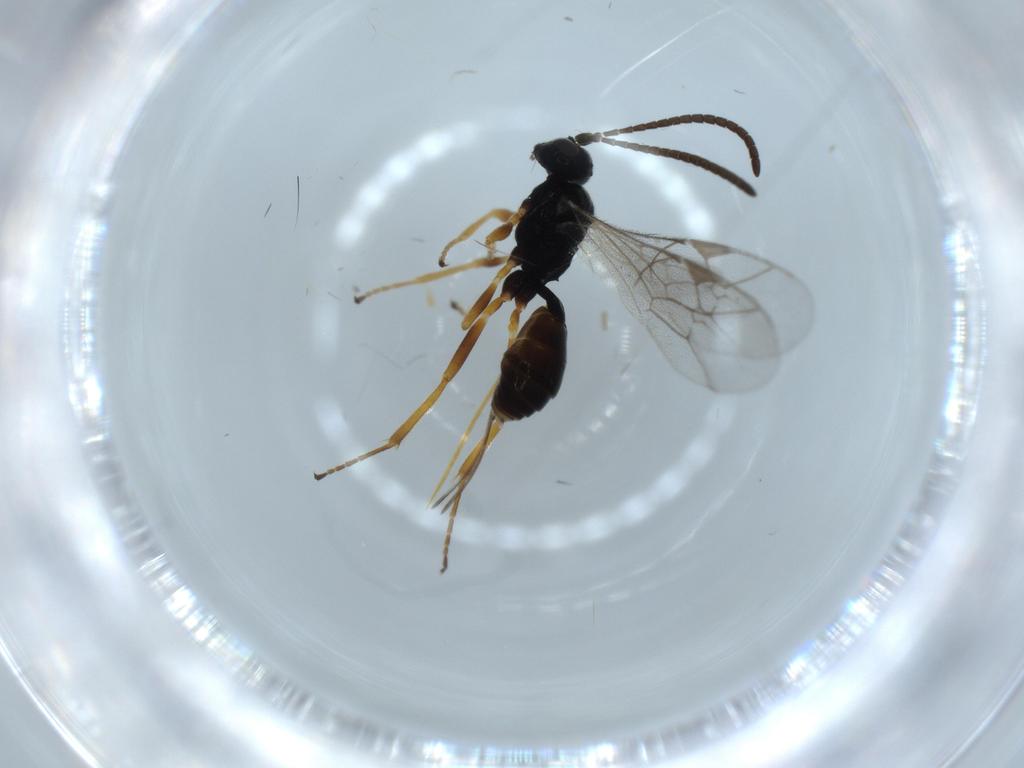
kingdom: Animalia
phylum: Arthropoda
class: Insecta
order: Hymenoptera
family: Ichneumonidae
